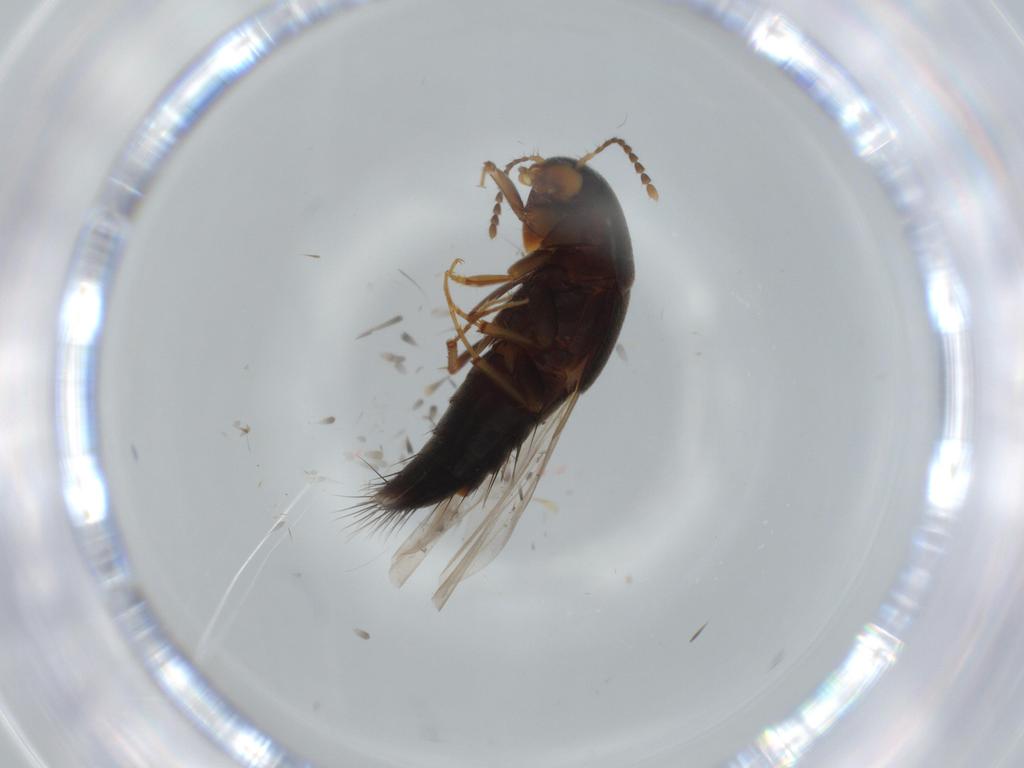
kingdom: Animalia
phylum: Arthropoda
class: Insecta
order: Coleoptera
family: Staphylinidae
